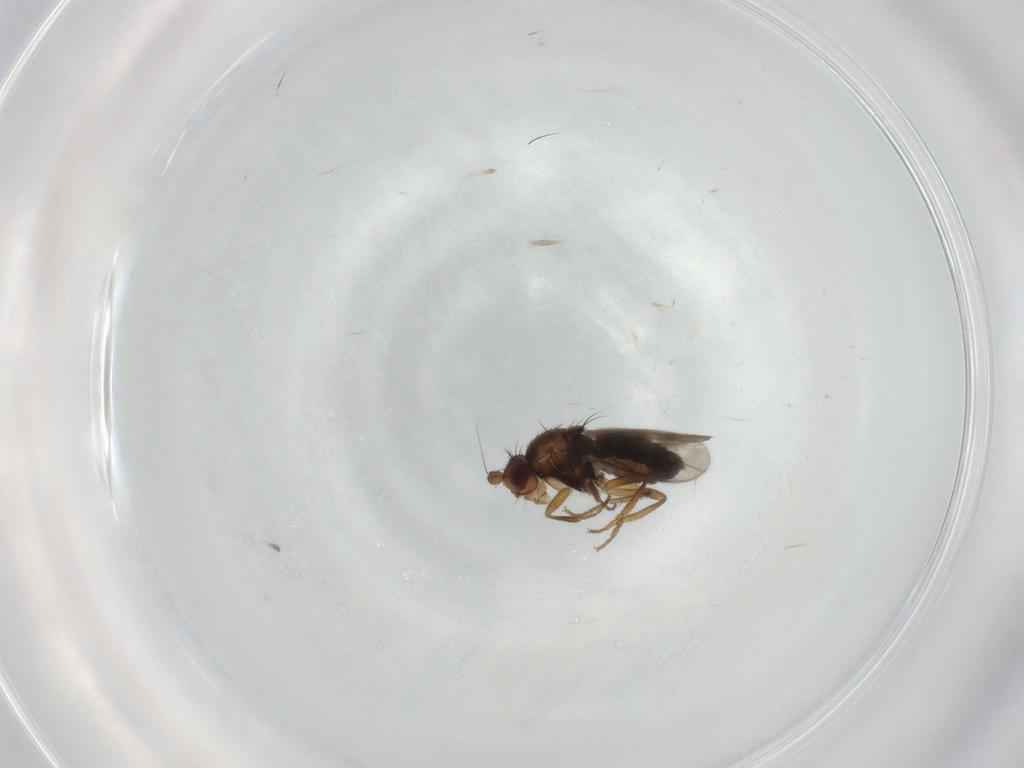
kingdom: Animalia
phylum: Arthropoda
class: Insecta
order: Diptera
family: Sphaeroceridae
